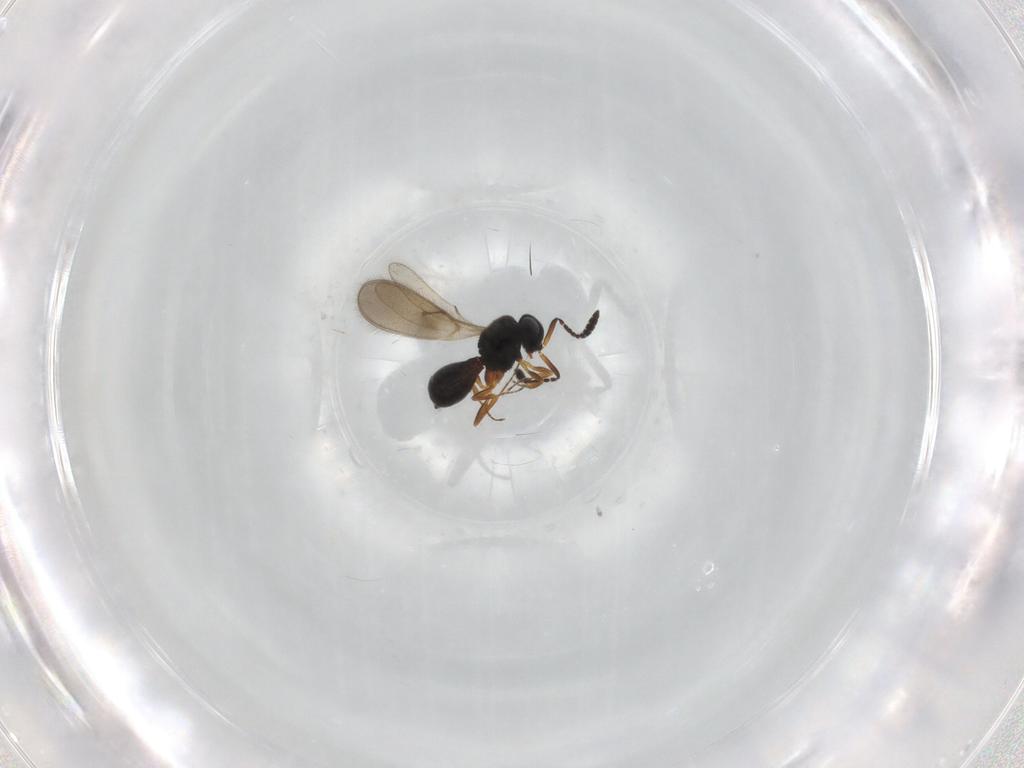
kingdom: Animalia
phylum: Arthropoda
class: Insecta
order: Hymenoptera
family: Scelionidae
